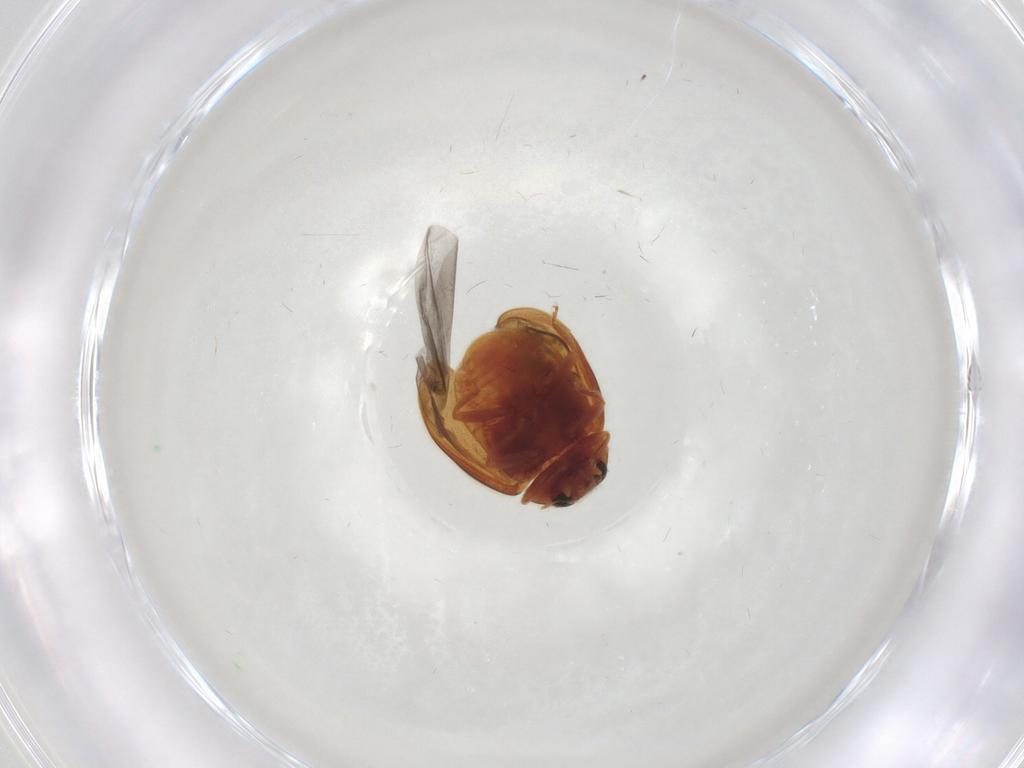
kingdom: Animalia
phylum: Arthropoda
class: Insecta
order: Coleoptera
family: Coccinellidae
